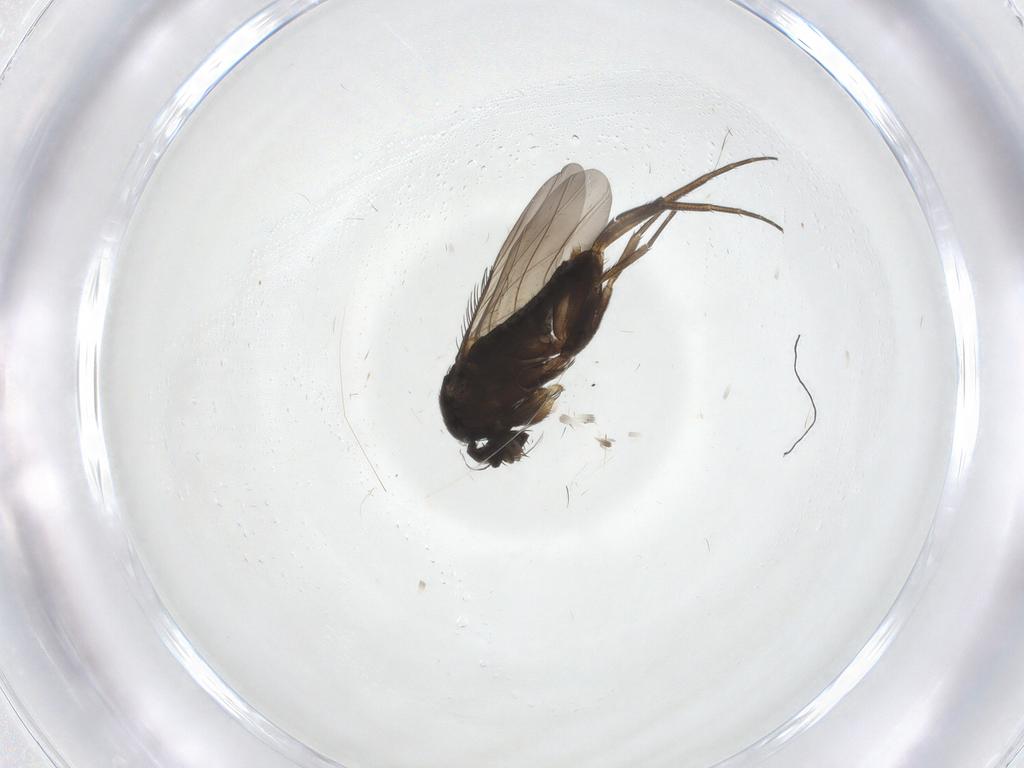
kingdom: Animalia
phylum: Arthropoda
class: Insecta
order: Diptera
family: Phoridae
